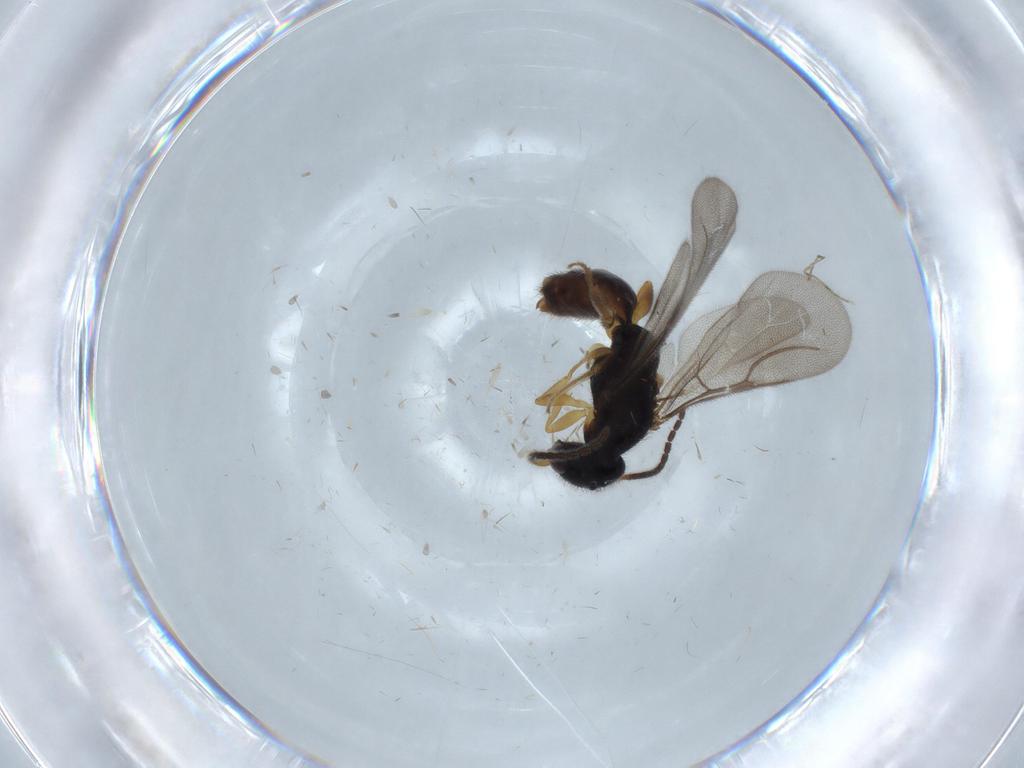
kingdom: Animalia
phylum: Arthropoda
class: Insecta
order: Hymenoptera
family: Bethylidae
